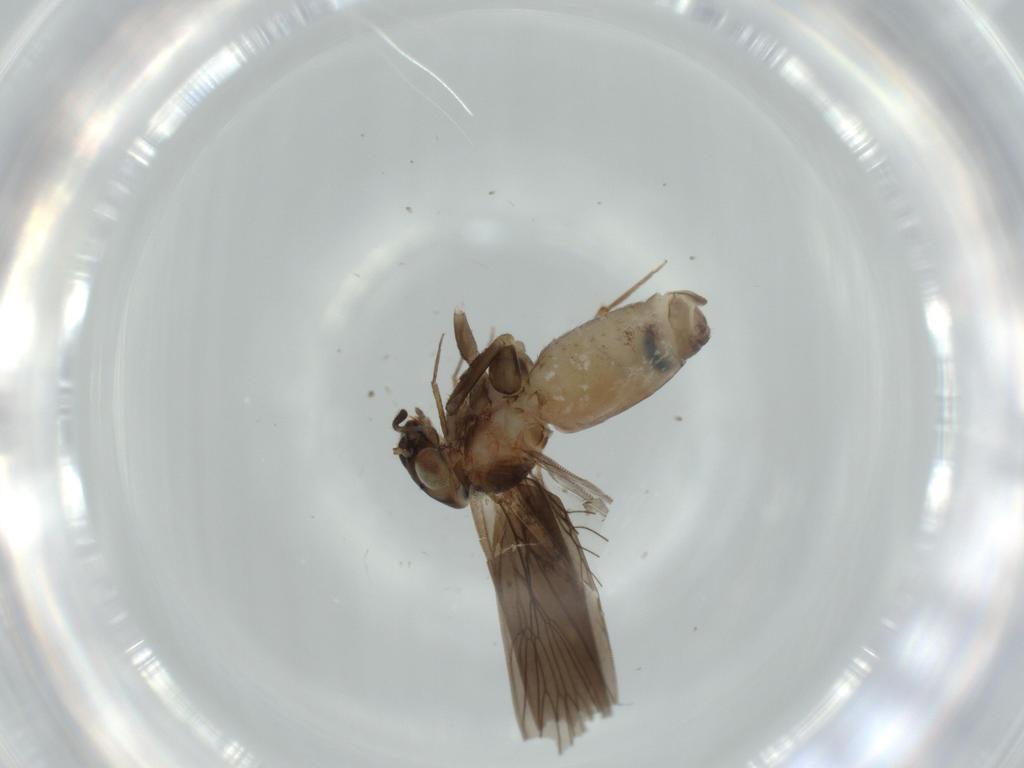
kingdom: Animalia
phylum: Arthropoda
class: Insecta
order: Psocodea
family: Lepidopsocidae
